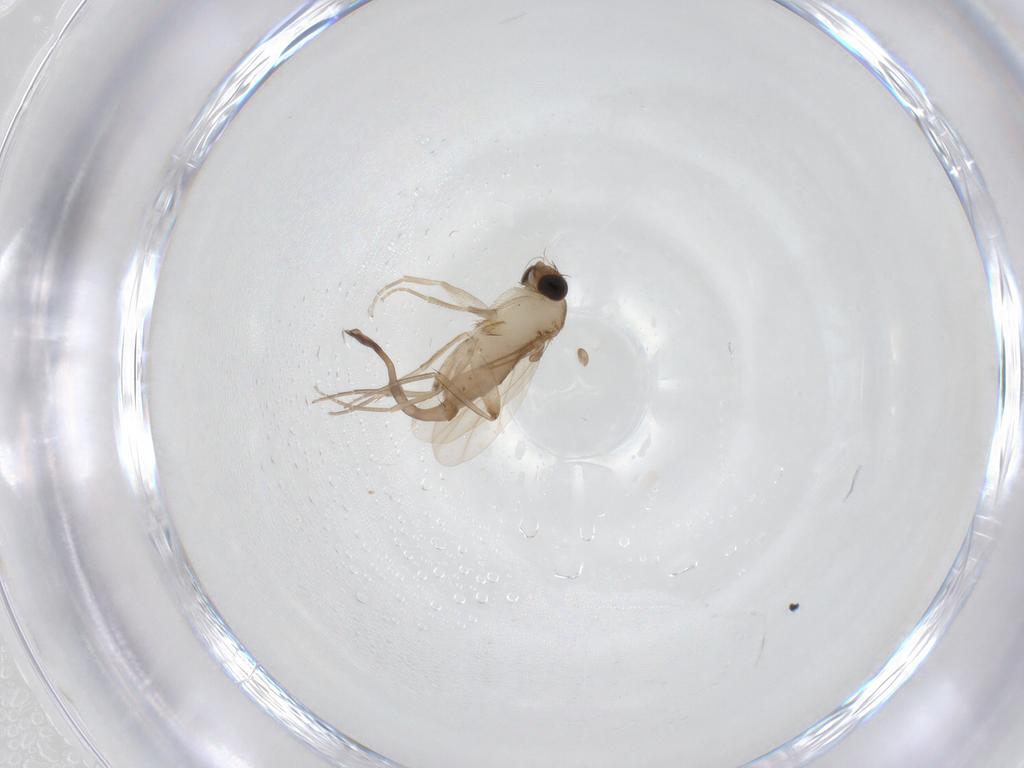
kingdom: Animalia
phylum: Arthropoda
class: Insecta
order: Diptera
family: Phoridae
